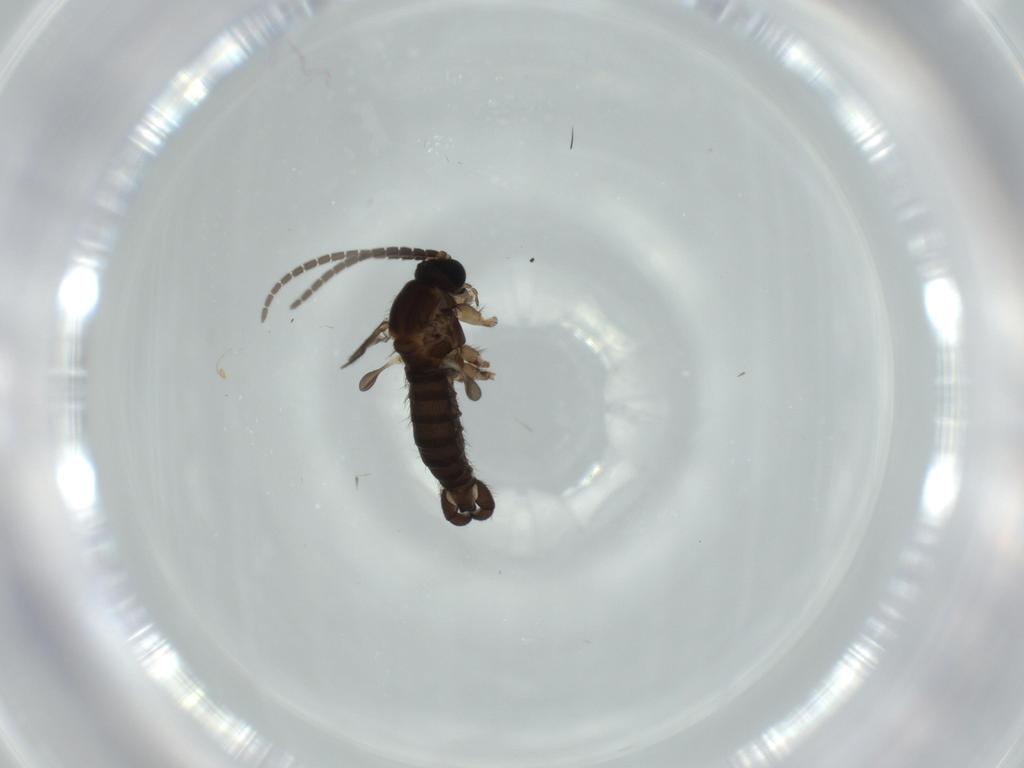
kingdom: Animalia
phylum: Arthropoda
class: Insecta
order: Diptera
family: Sciaridae
